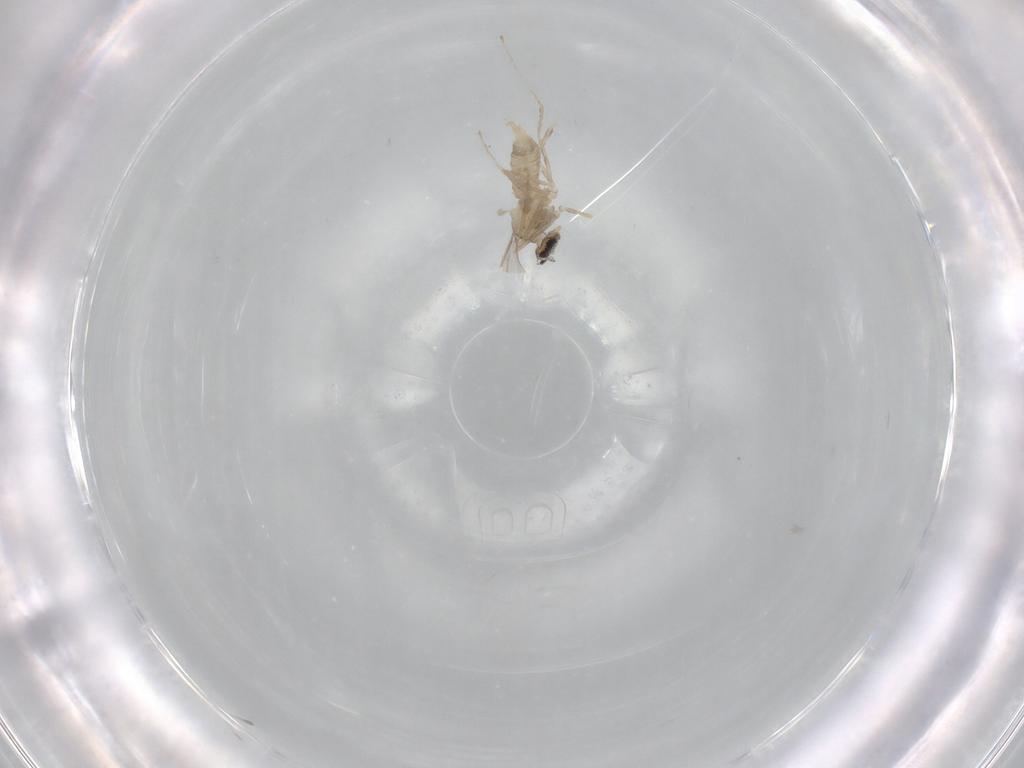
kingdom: Animalia
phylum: Arthropoda
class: Insecta
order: Diptera
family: Cecidomyiidae
